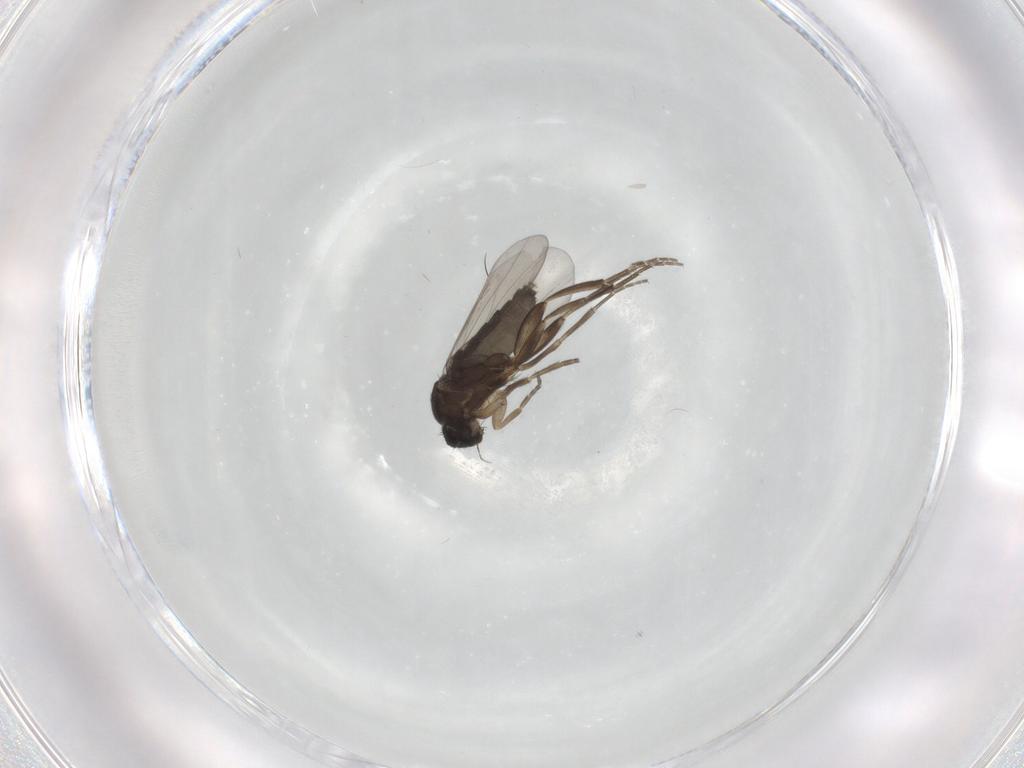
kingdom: Animalia
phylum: Arthropoda
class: Insecta
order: Diptera
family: Phoridae
